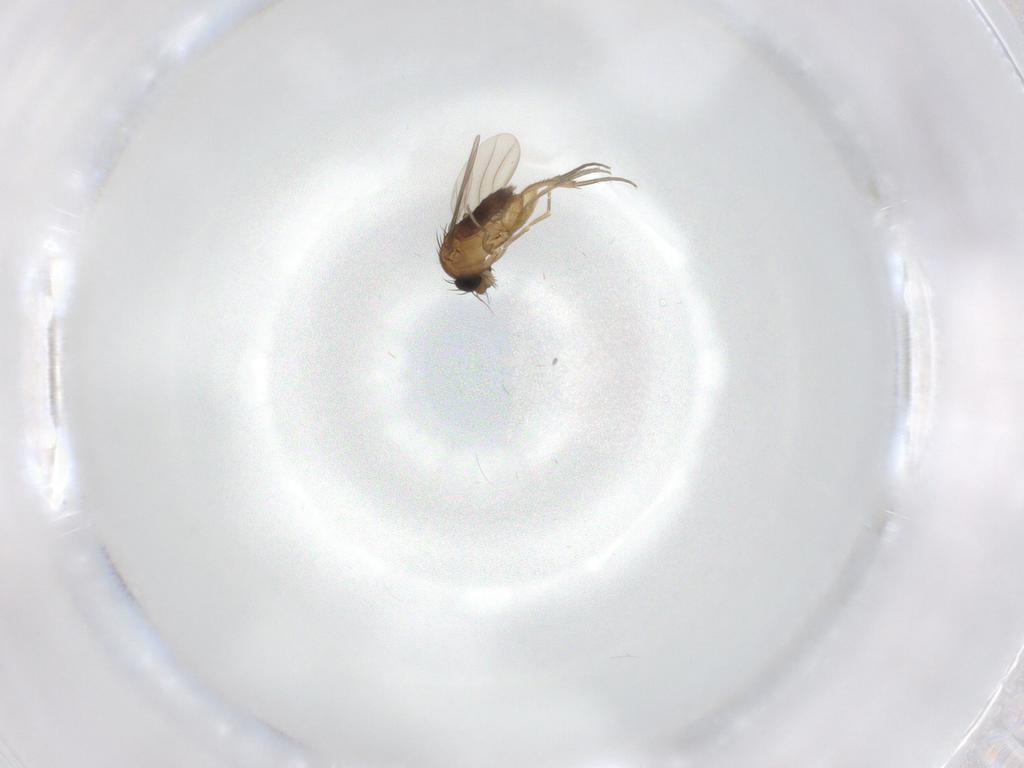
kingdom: Animalia
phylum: Arthropoda
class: Insecta
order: Diptera
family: Phoridae
